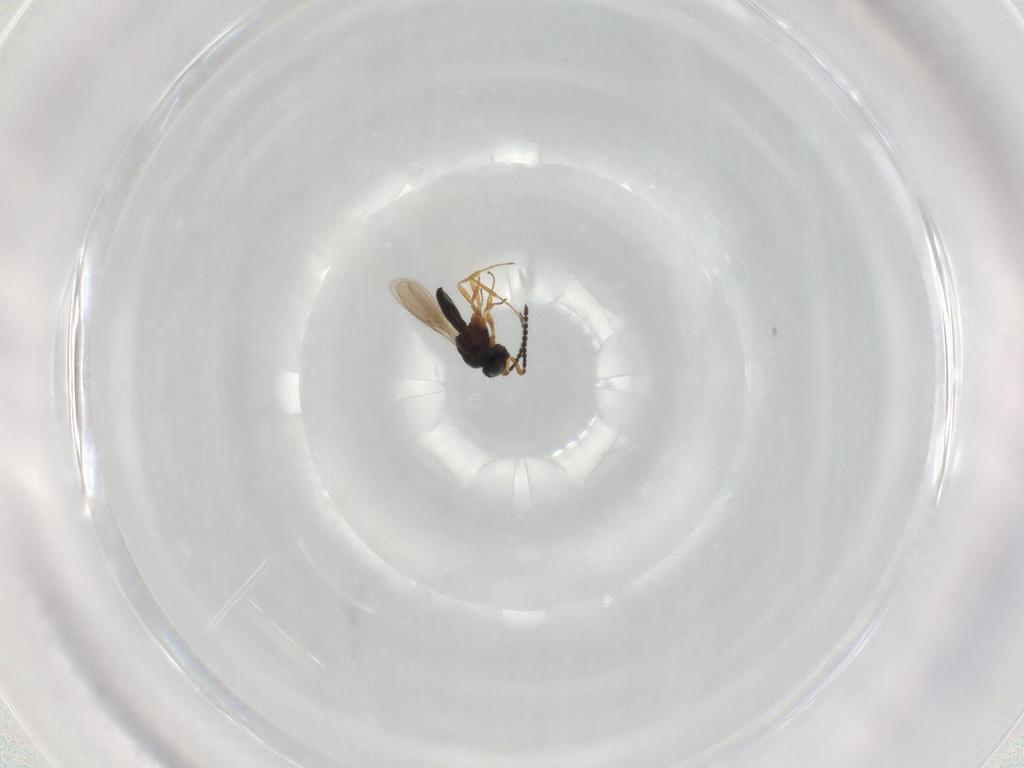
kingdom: Animalia
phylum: Arthropoda
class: Insecta
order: Hymenoptera
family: Scelionidae
